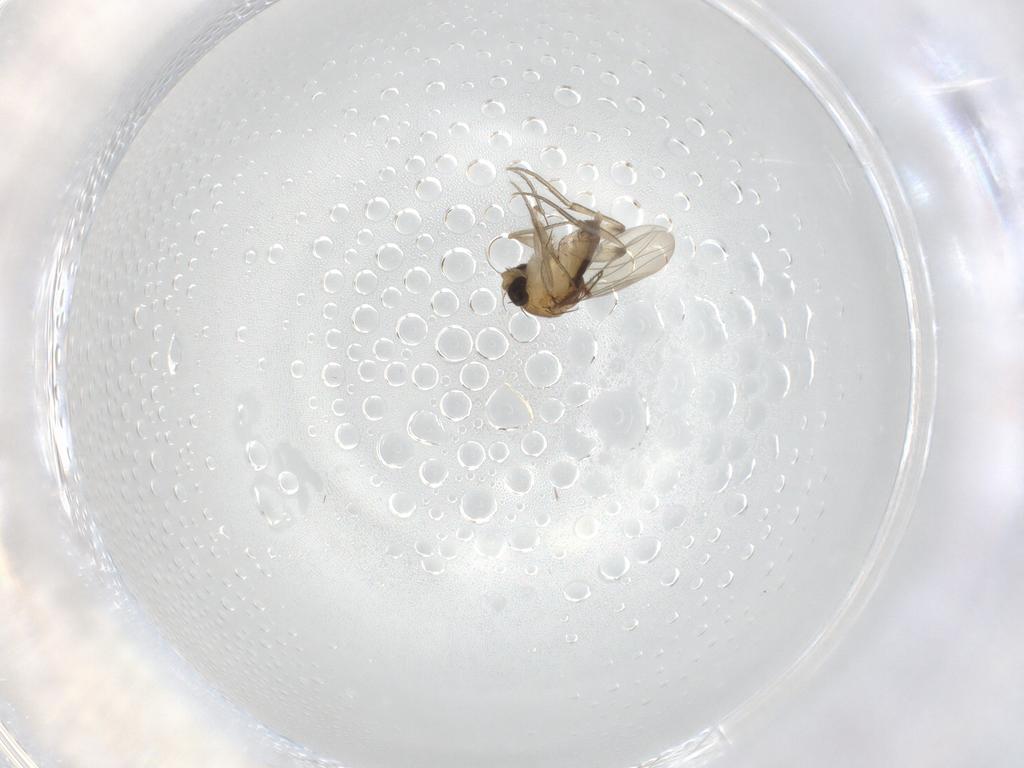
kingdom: Animalia
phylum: Arthropoda
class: Insecta
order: Diptera
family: Phoridae
